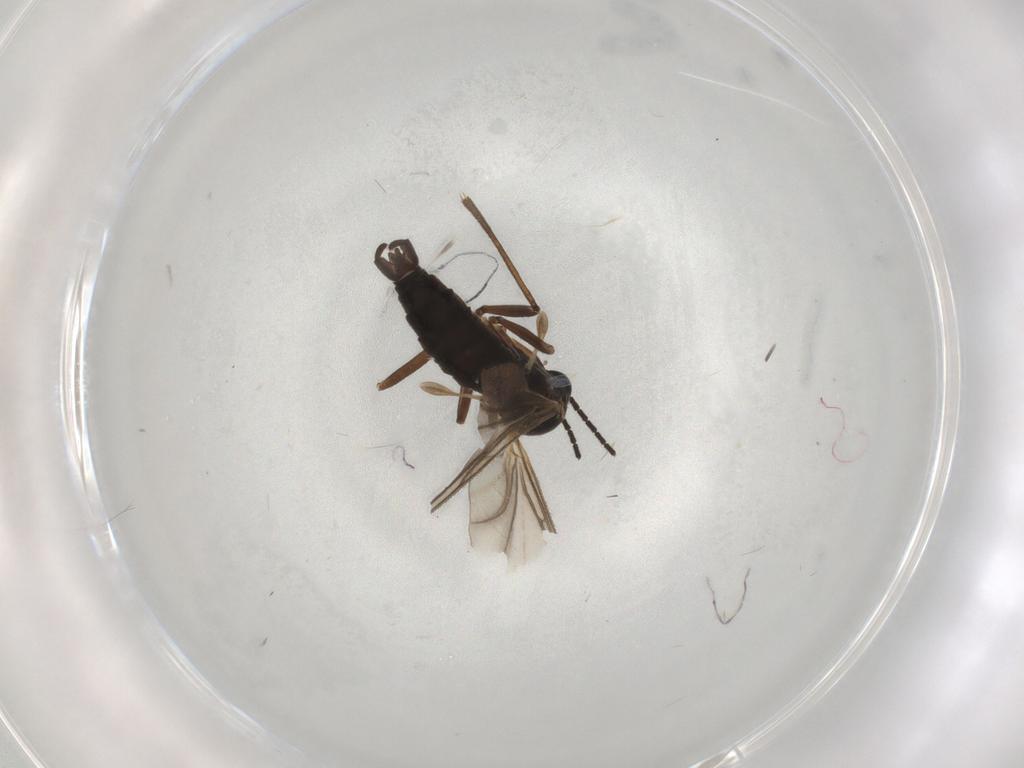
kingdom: Animalia
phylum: Arthropoda
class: Insecta
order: Diptera
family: Sciaridae
